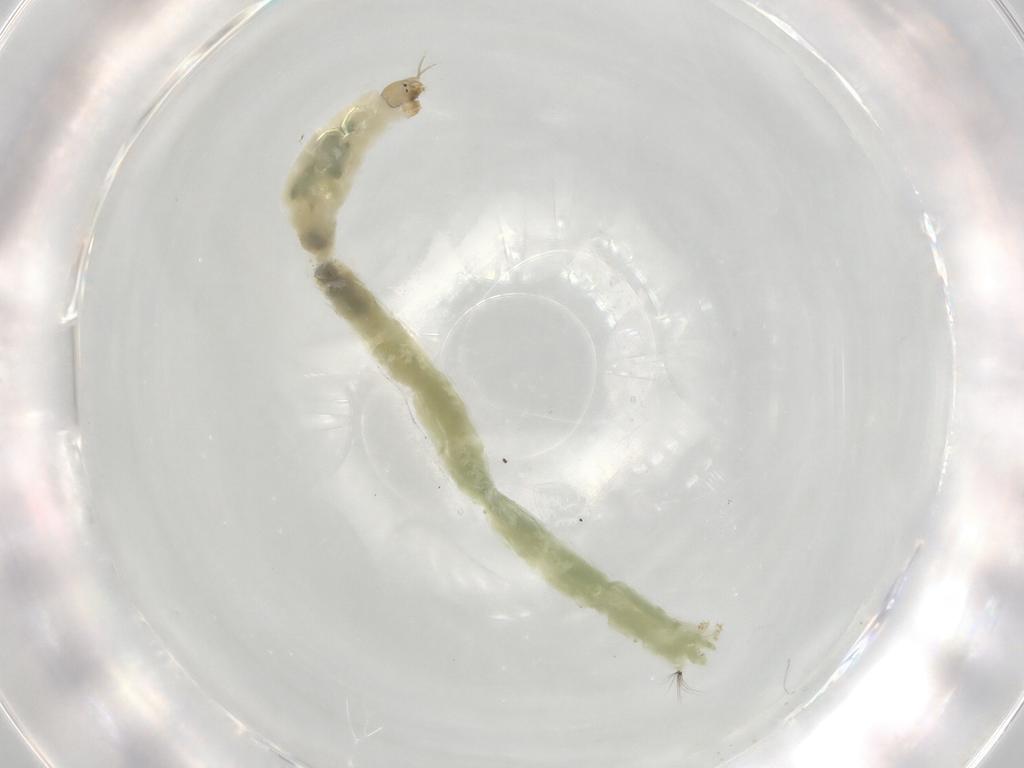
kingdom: Animalia
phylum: Arthropoda
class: Insecta
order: Diptera
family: Chironomidae
